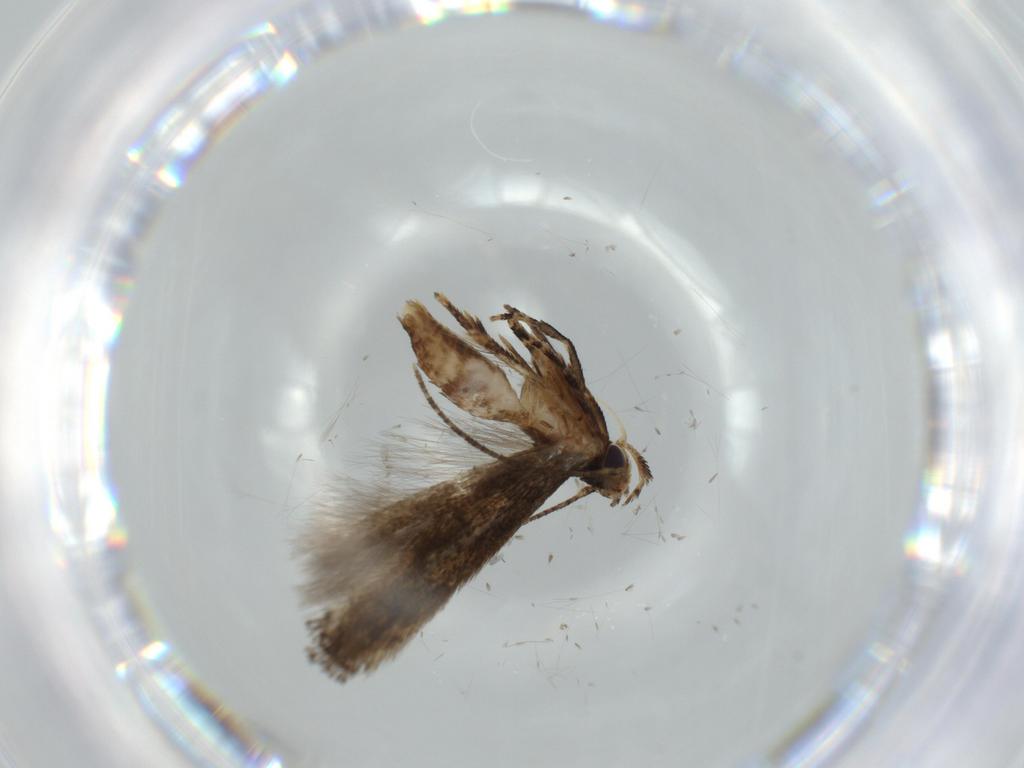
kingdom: Animalia
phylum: Arthropoda
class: Insecta
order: Lepidoptera
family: Cosmopterigidae
